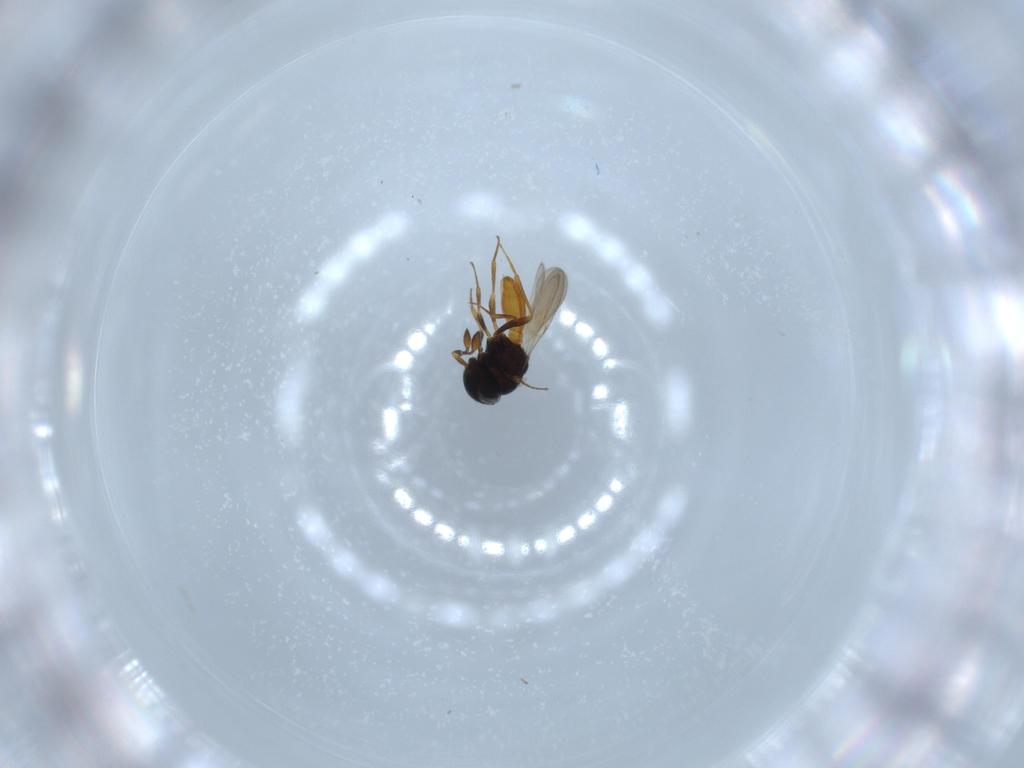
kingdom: Animalia
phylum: Arthropoda
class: Insecta
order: Hymenoptera
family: Scelionidae
